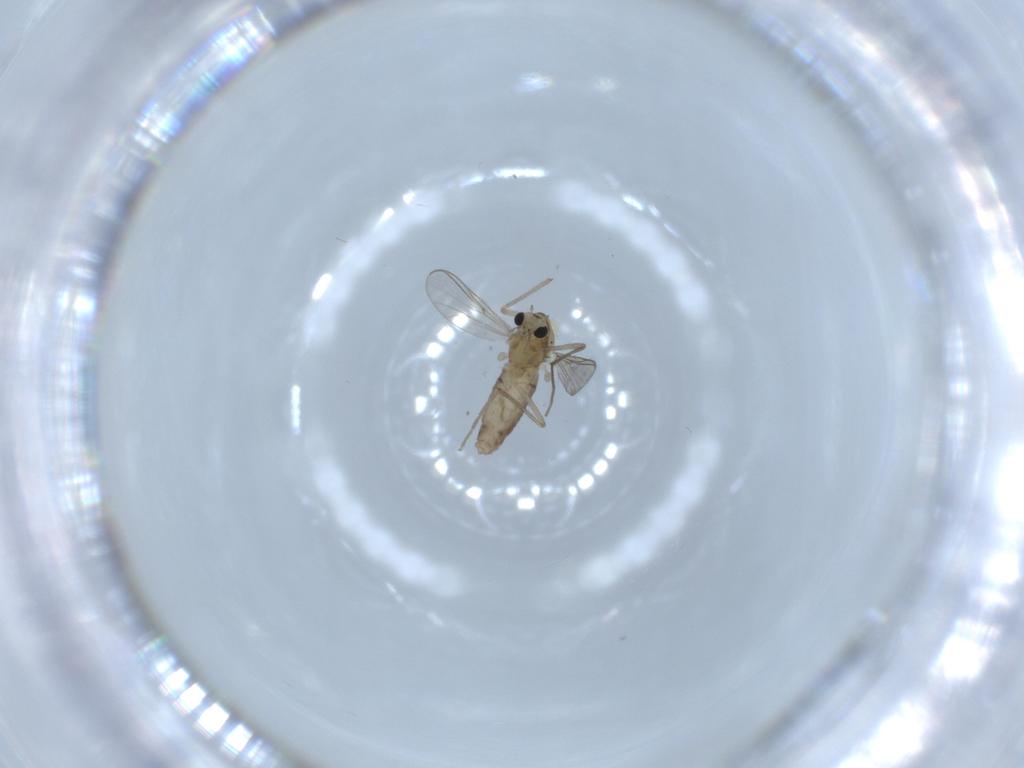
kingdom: Animalia
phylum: Arthropoda
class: Insecta
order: Diptera
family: Chironomidae
